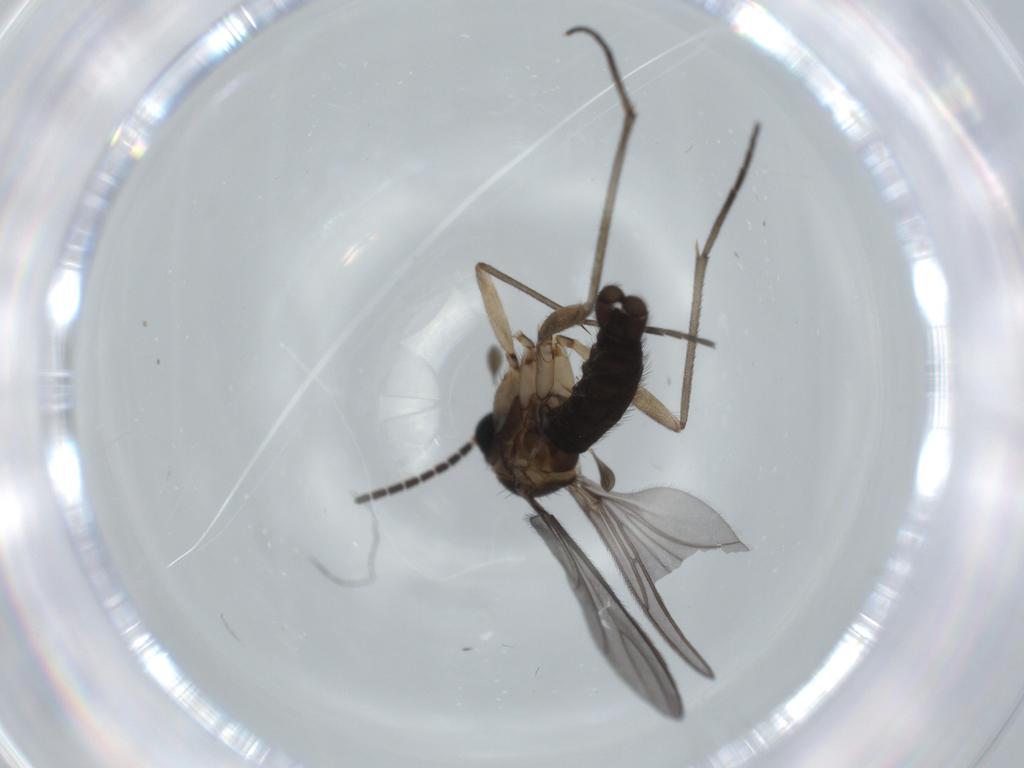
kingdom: Animalia
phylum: Arthropoda
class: Insecta
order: Diptera
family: Sciaridae
